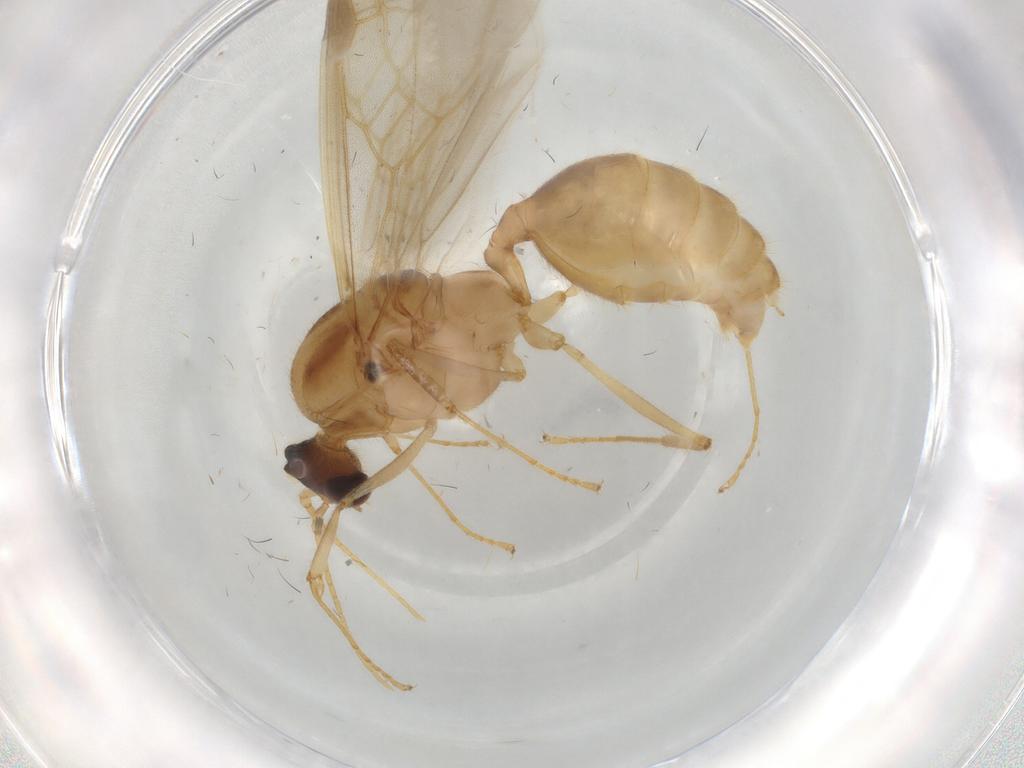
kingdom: Animalia
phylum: Arthropoda
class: Insecta
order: Hymenoptera
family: Formicidae
